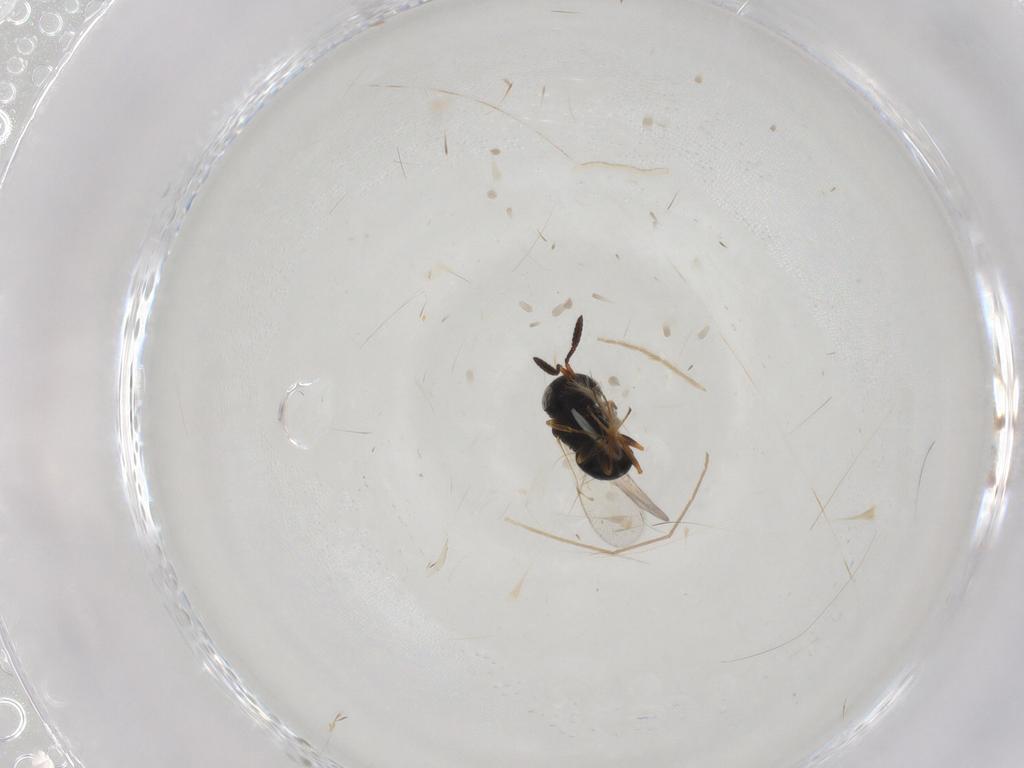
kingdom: Animalia
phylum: Arthropoda
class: Insecta
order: Hymenoptera
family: Scelionidae
